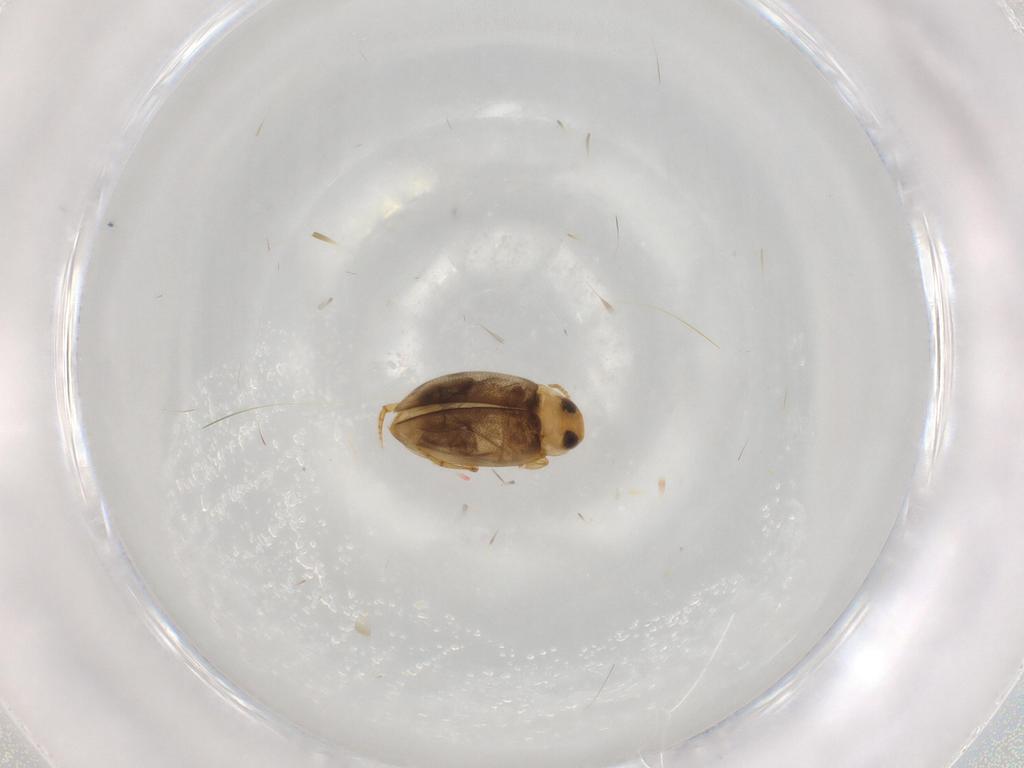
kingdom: Animalia
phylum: Arthropoda
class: Insecta
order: Coleoptera
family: Dytiscidae
